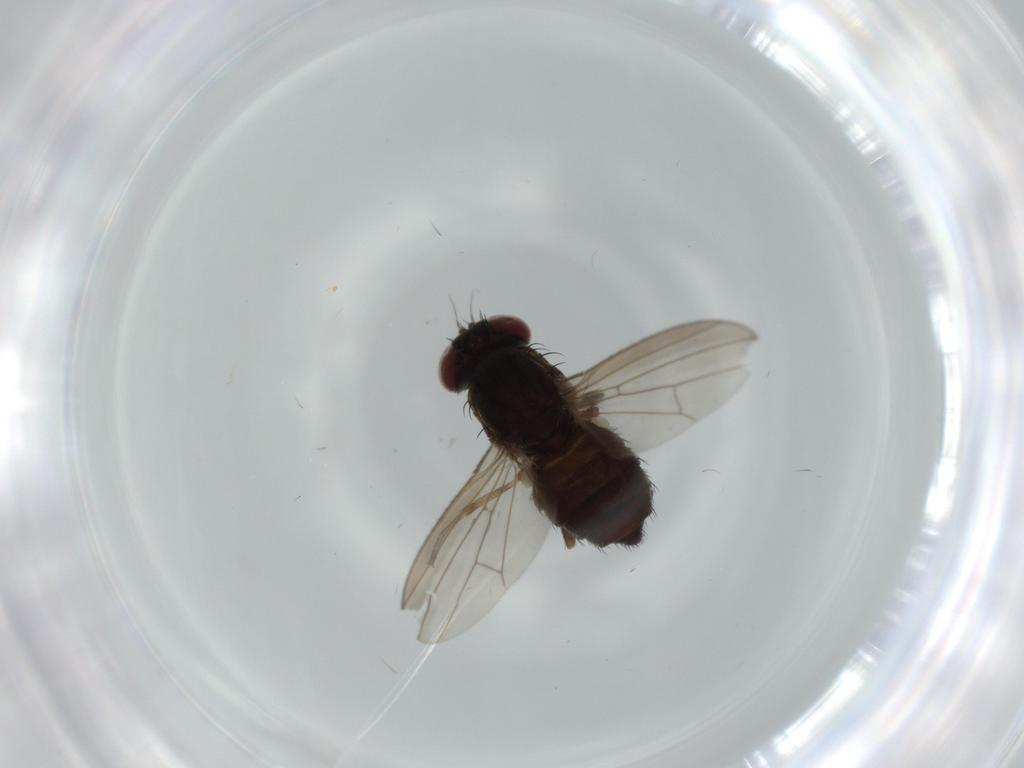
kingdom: Animalia
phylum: Arthropoda
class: Insecta
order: Diptera
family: Heleomyzidae
